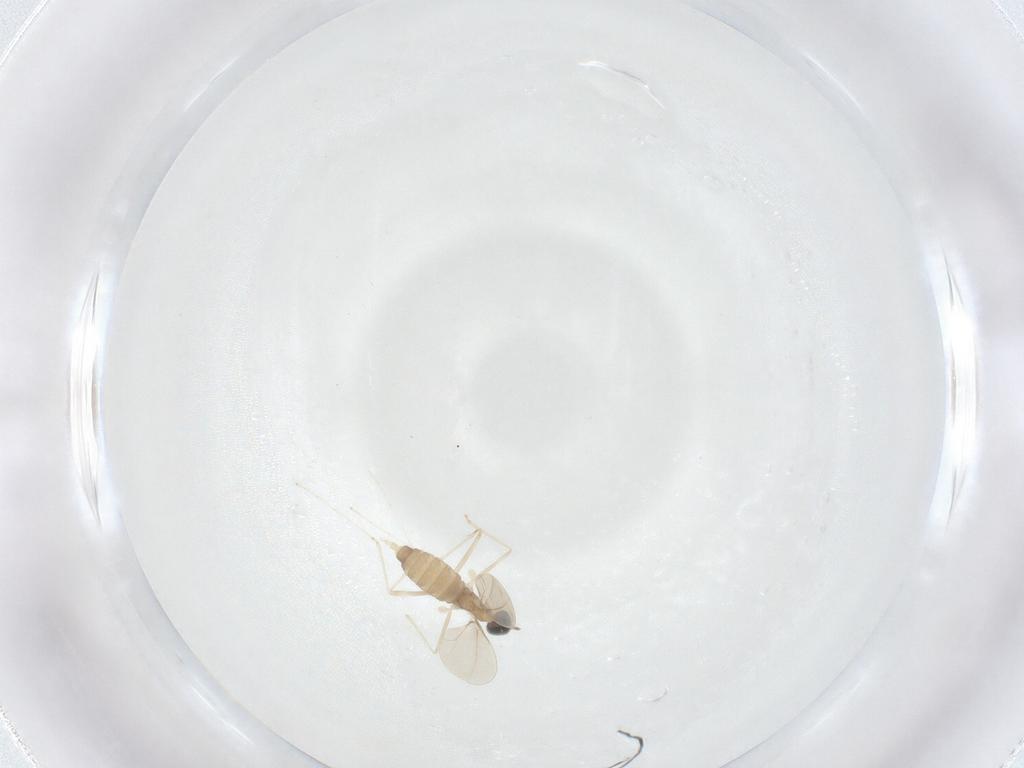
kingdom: Animalia
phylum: Arthropoda
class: Insecta
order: Diptera
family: Cecidomyiidae
